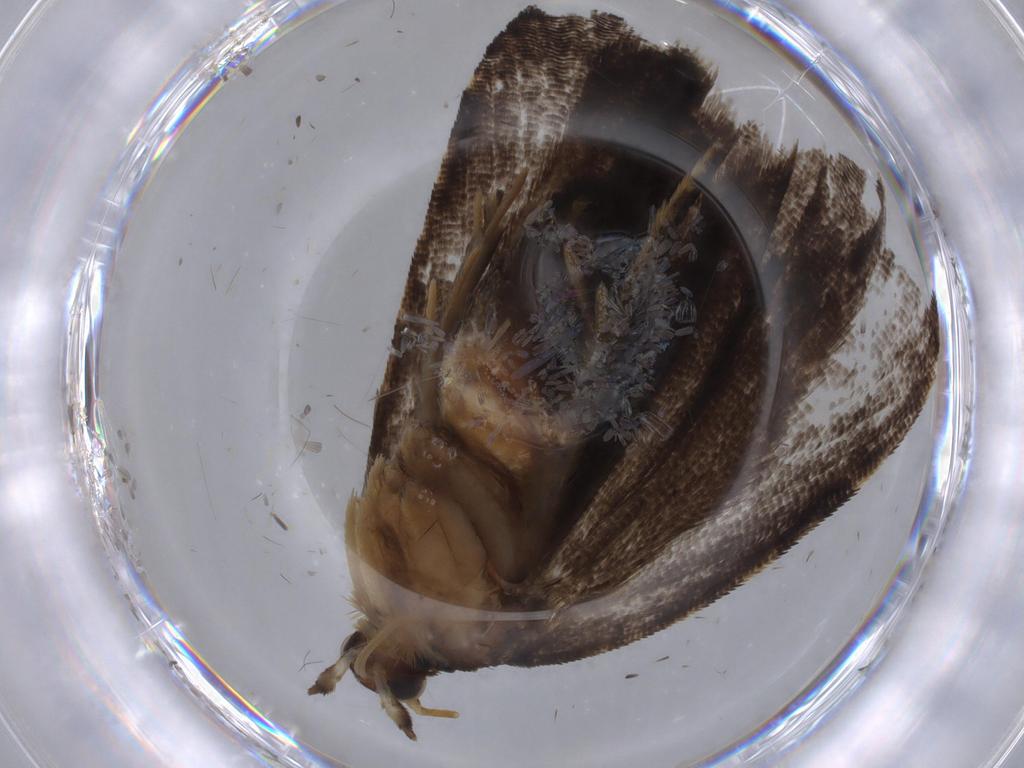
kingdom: Animalia
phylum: Arthropoda
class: Insecta
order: Lepidoptera
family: Tortricidae
